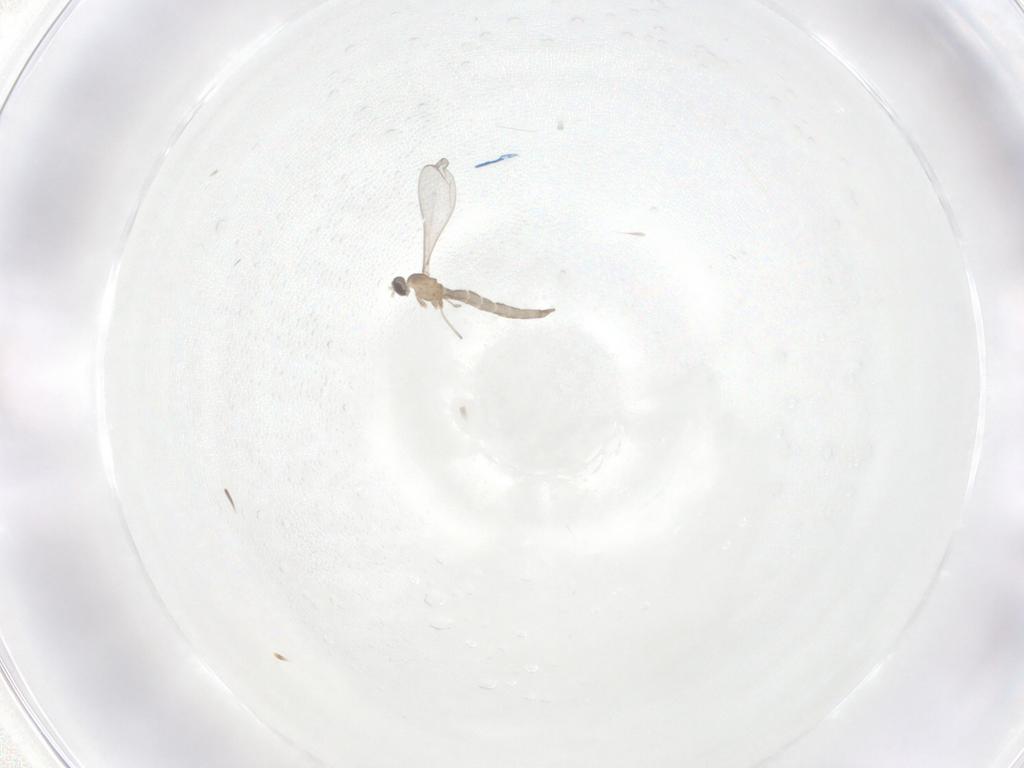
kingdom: Animalia
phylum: Arthropoda
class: Insecta
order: Diptera
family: Cecidomyiidae
